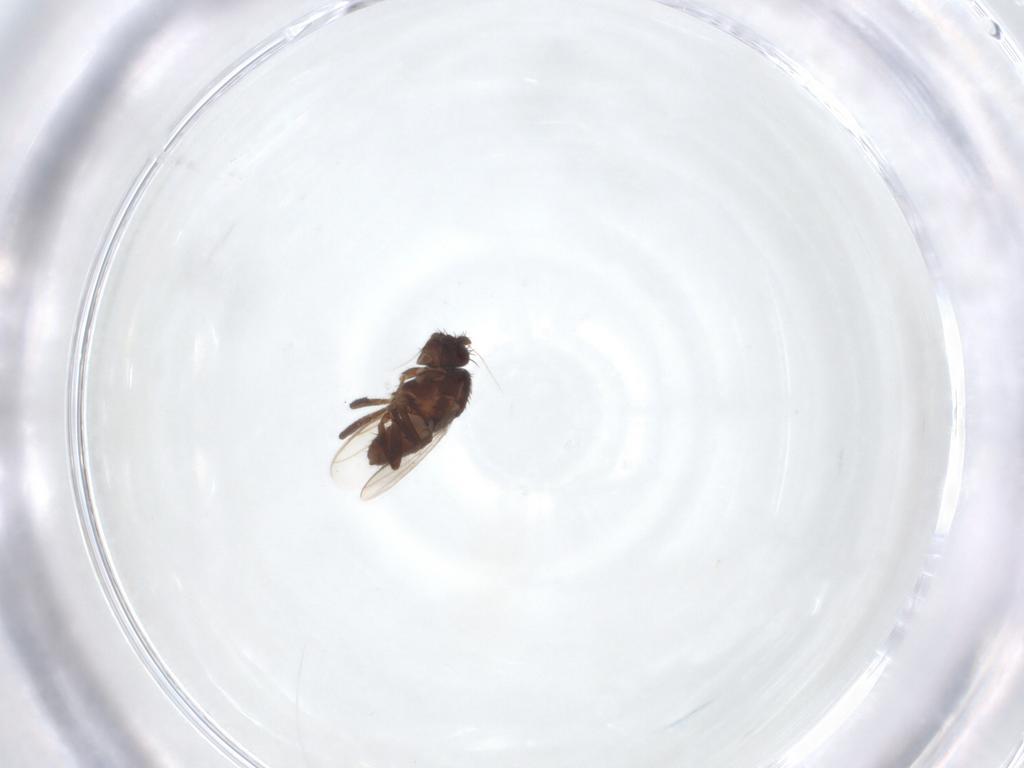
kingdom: Animalia
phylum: Arthropoda
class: Insecta
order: Diptera
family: Sphaeroceridae
